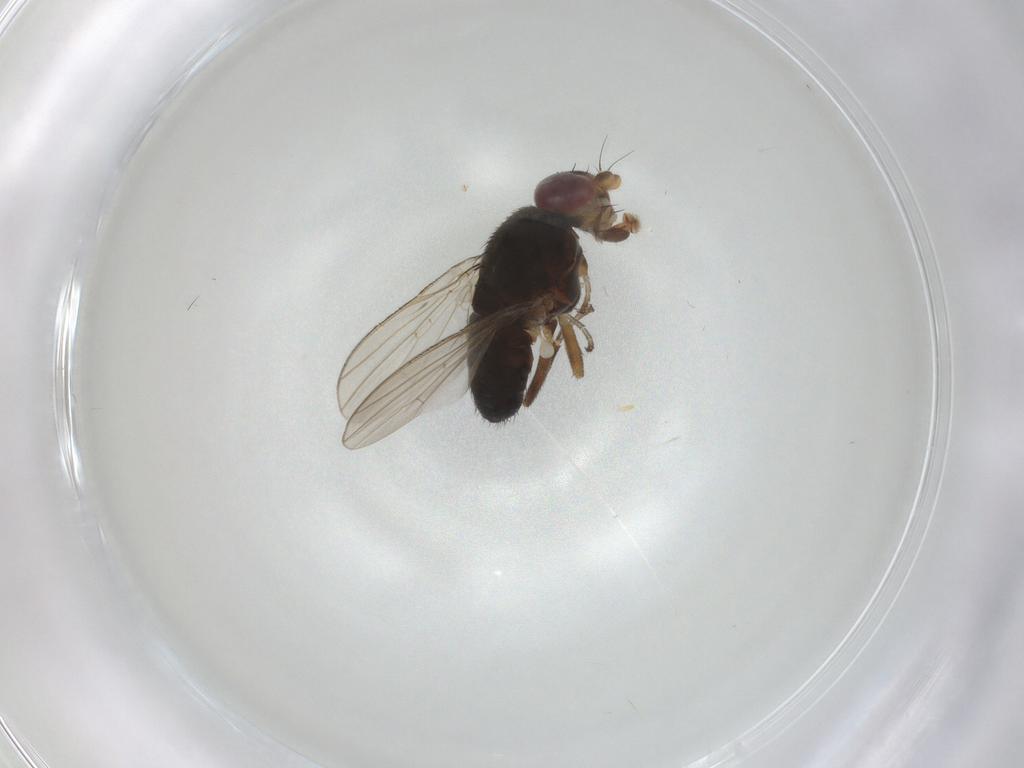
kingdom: Animalia
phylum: Arthropoda
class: Insecta
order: Diptera
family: Heleomyzidae
